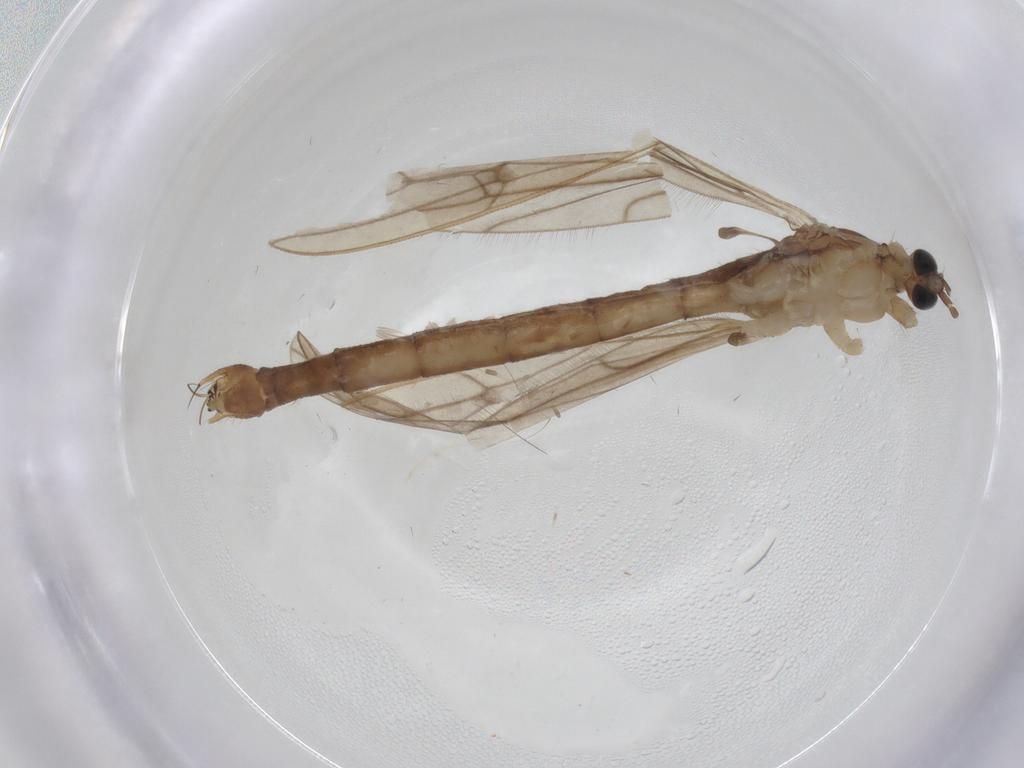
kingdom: Animalia
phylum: Arthropoda
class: Insecta
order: Diptera
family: Limoniidae
